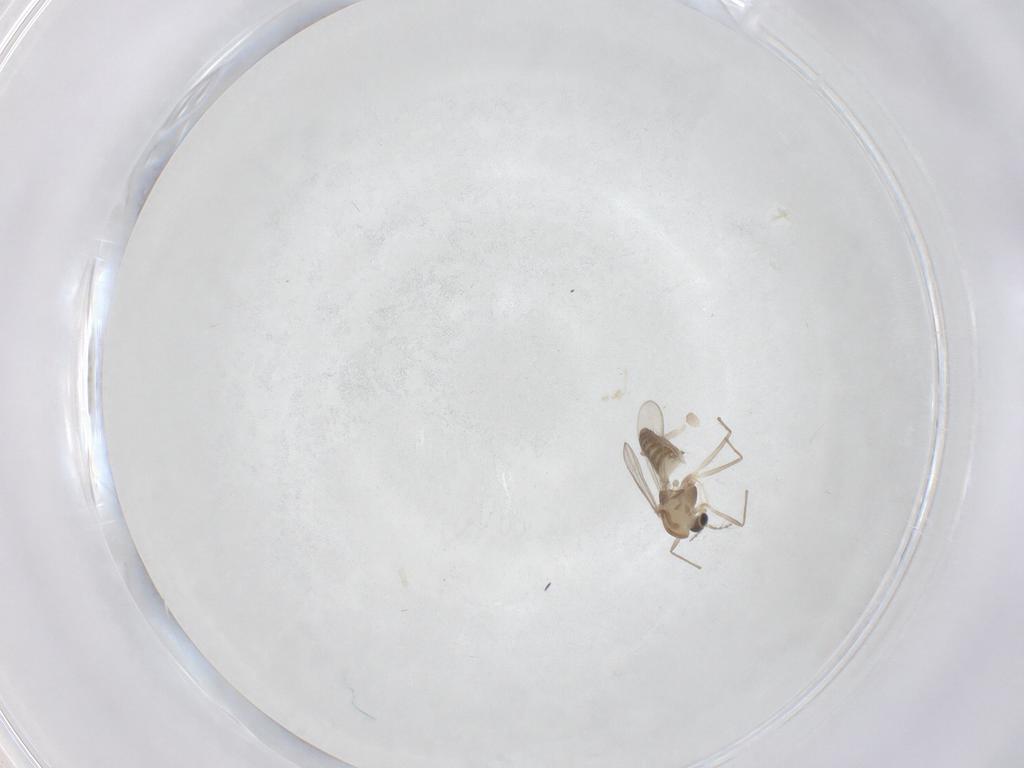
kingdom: Animalia
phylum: Arthropoda
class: Insecta
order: Diptera
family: Chironomidae
